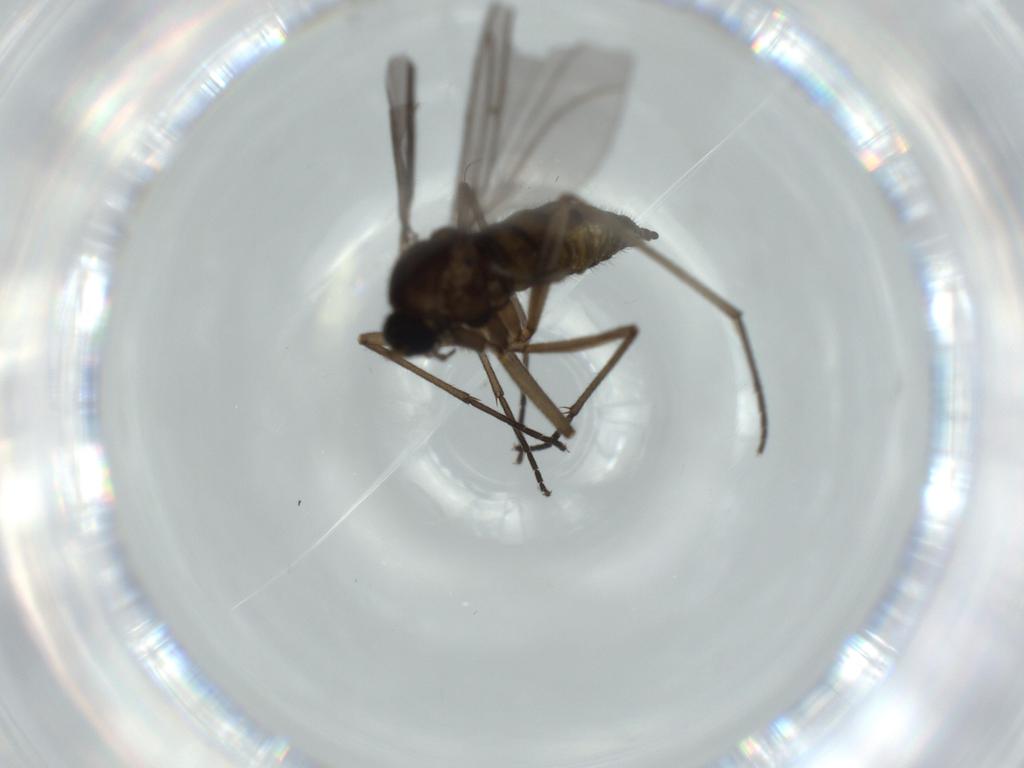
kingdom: Animalia
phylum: Arthropoda
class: Insecta
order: Diptera
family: Sciaridae
